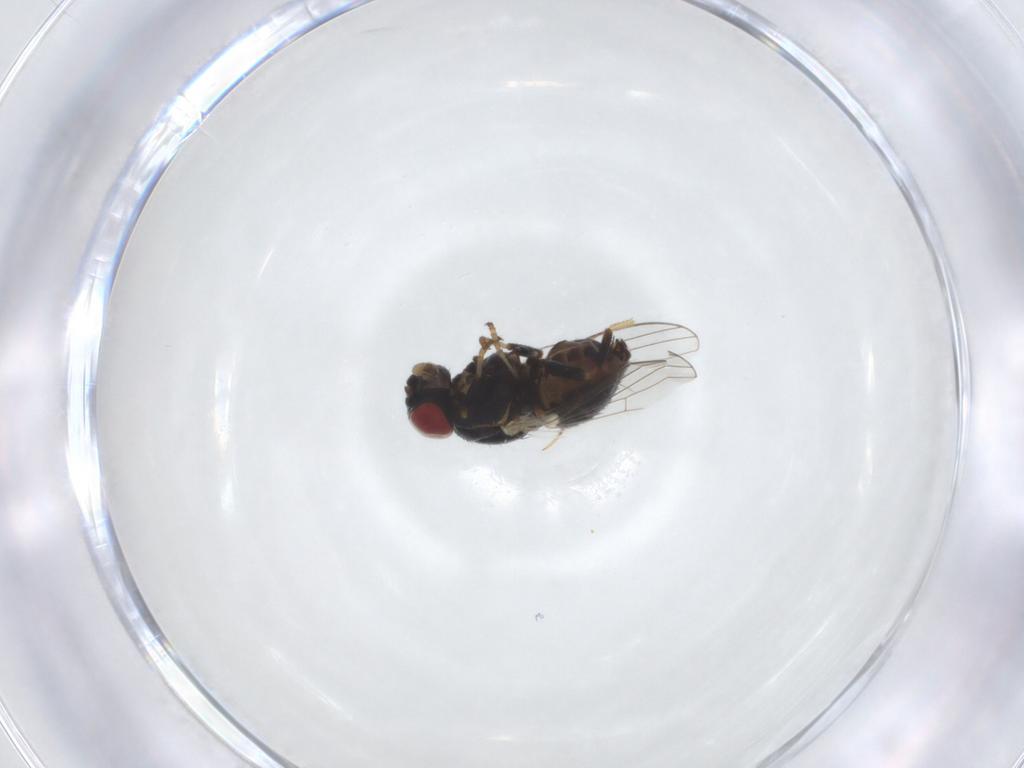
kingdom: Animalia
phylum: Arthropoda
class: Insecta
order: Diptera
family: Chamaemyiidae
